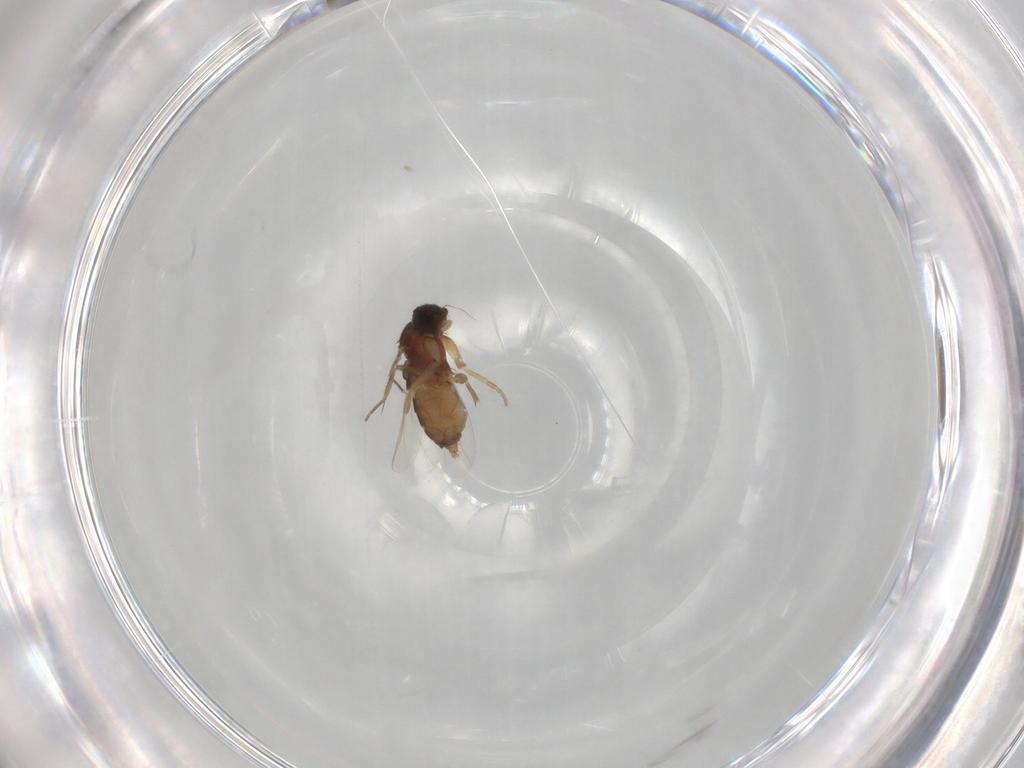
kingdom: Animalia
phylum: Arthropoda
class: Insecta
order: Diptera
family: Phoridae
